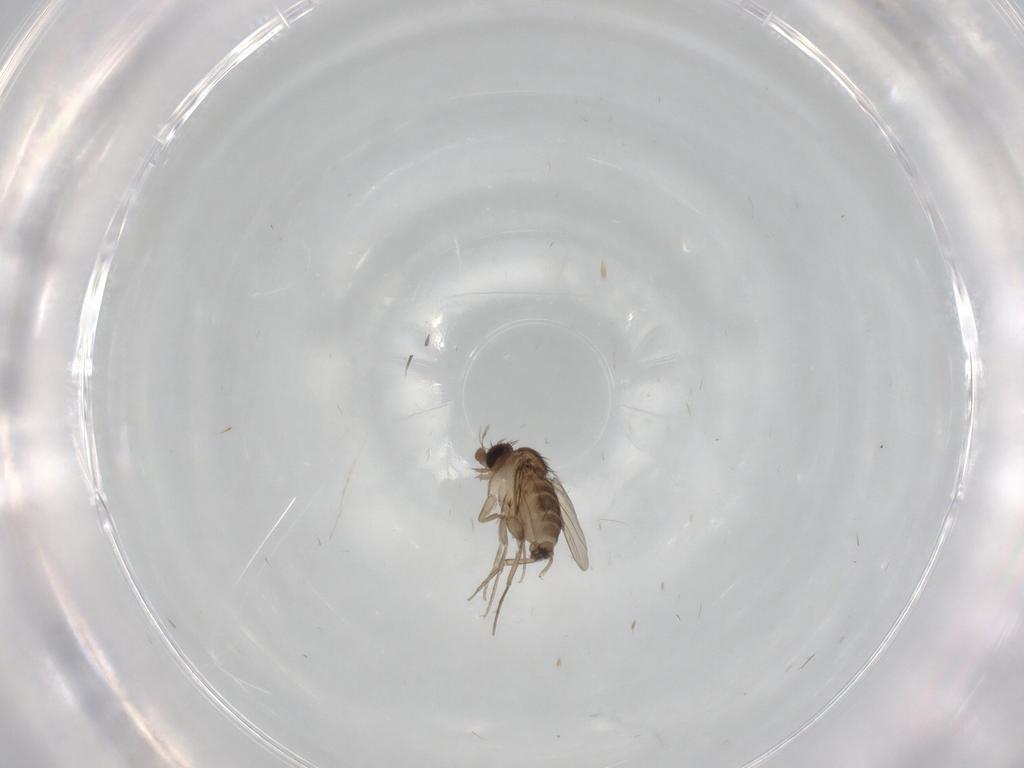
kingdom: Animalia
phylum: Arthropoda
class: Insecta
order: Diptera
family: Phoridae
